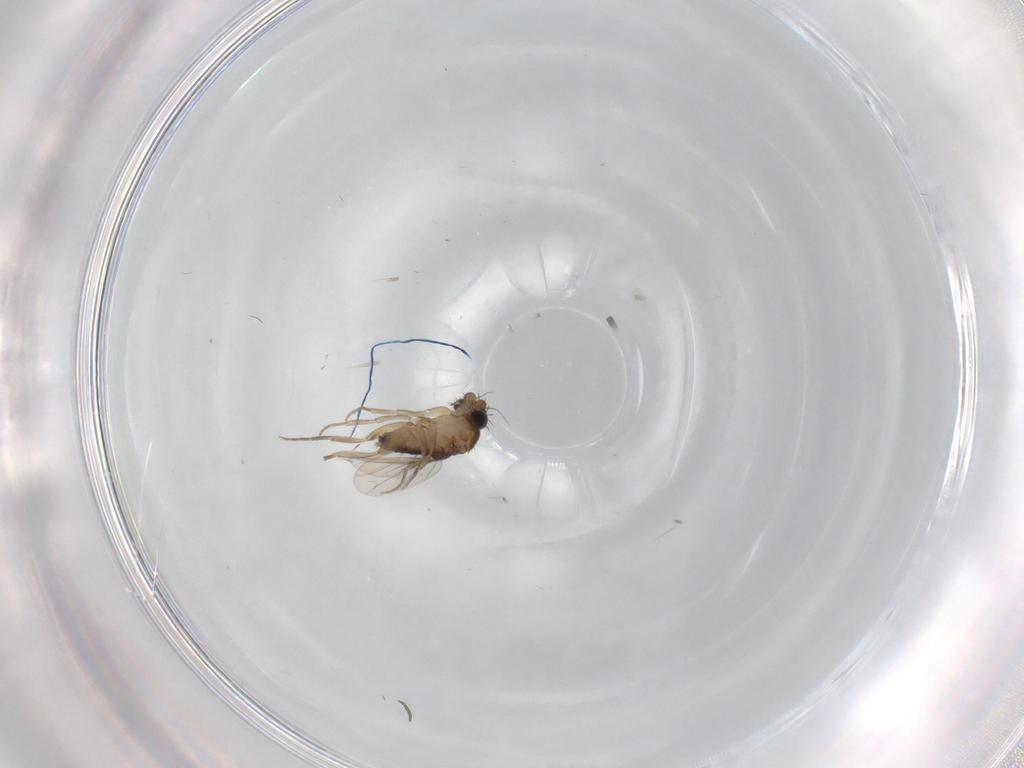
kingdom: Animalia
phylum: Arthropoda
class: Insecta
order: Diptera
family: Phoridae
